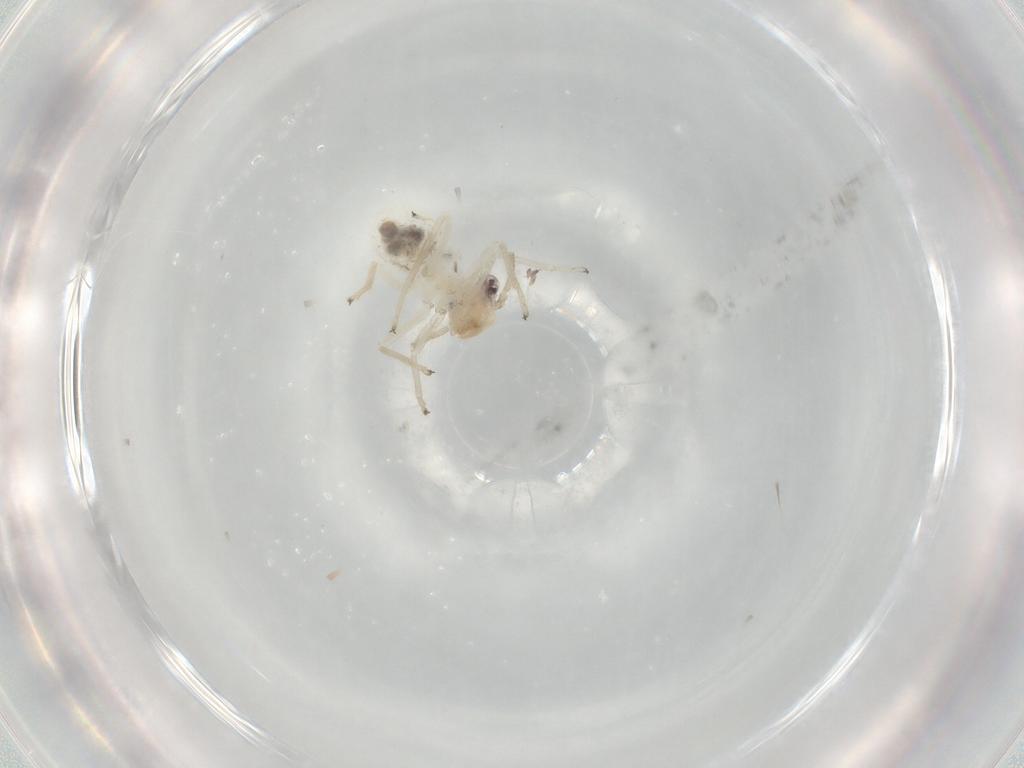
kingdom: Animalia
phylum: Arthropoda
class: Insecta
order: Psocodea
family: Caeciliusidae
